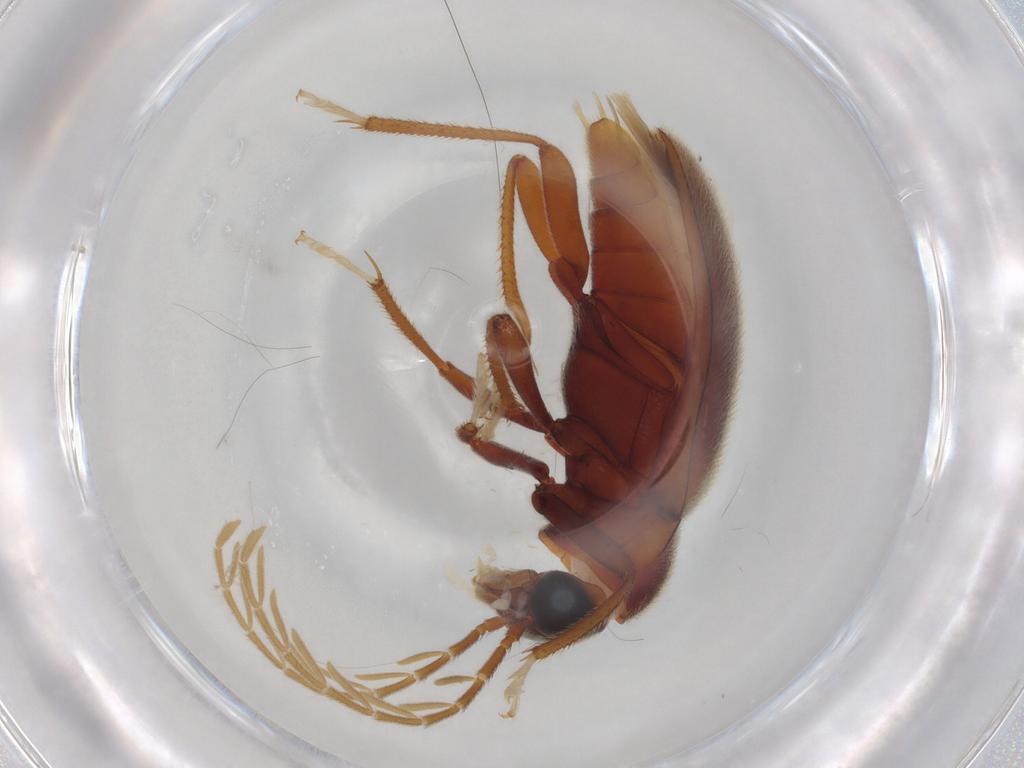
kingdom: Animalia
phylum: Arthropoda
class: Insecta
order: Coleoptera
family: Ptilodactylidae
